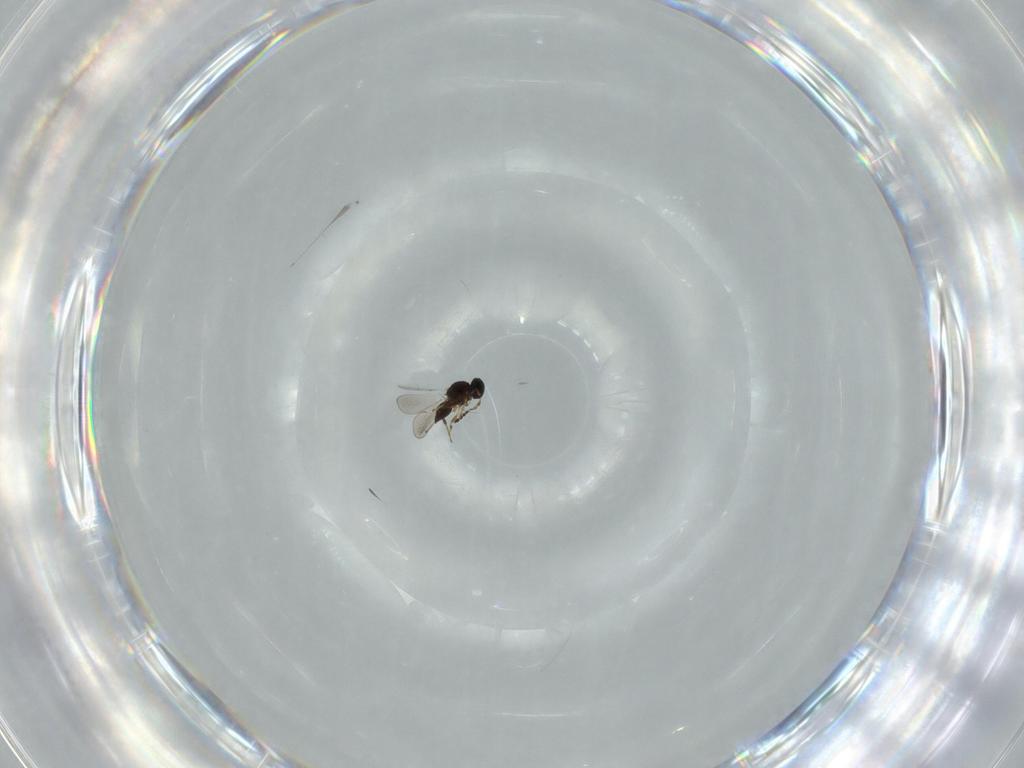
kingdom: Animalia
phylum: Arthropoda
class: Insecta
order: Hymenoptera
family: Platygastridae
